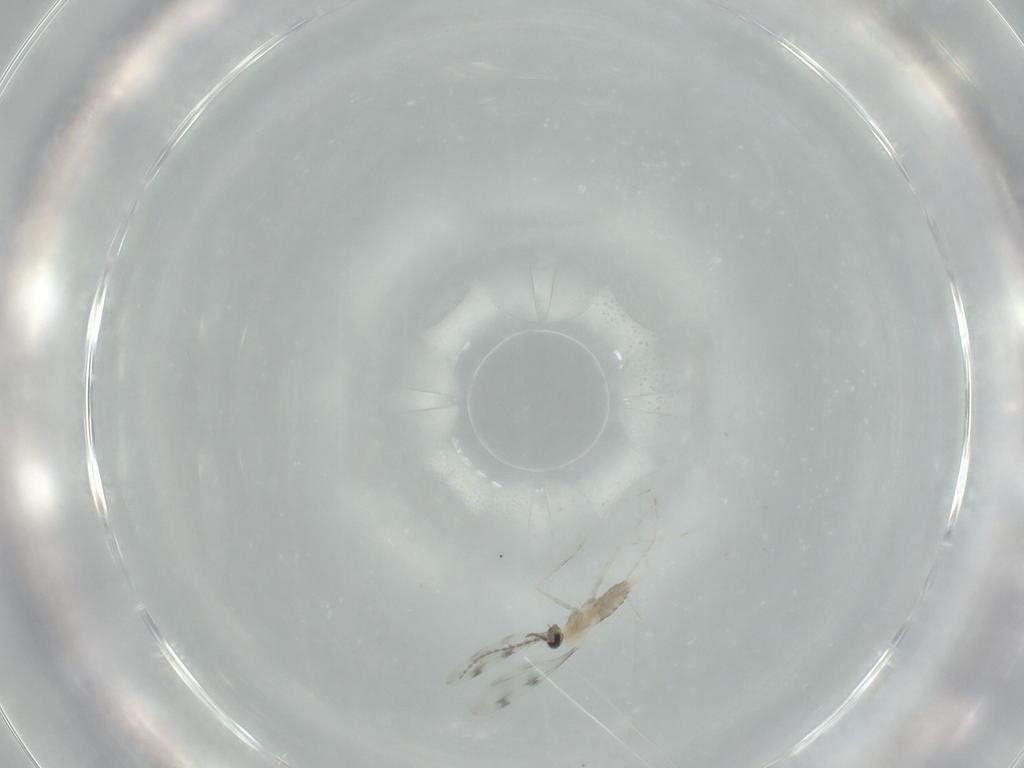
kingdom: Animalia
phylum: Arthropoda
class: Insecta
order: Diptera
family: Cecidomyiidae
